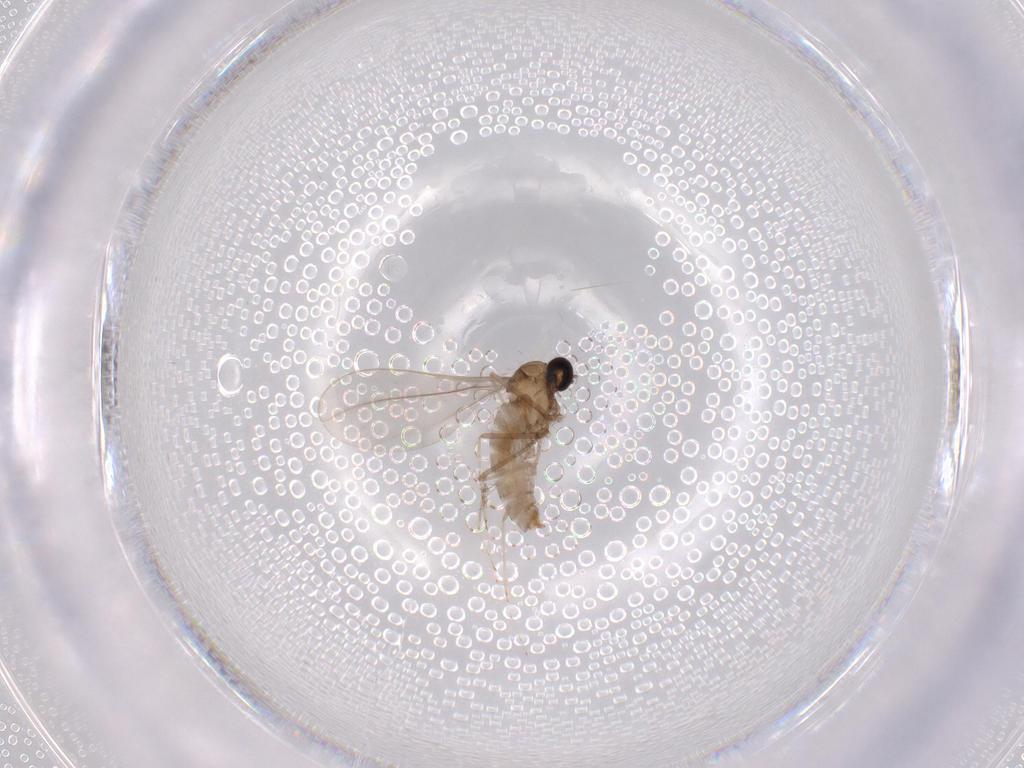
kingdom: Animalia
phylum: Arthropoda
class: Insecta
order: Diptera
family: Cecidomyiidae
